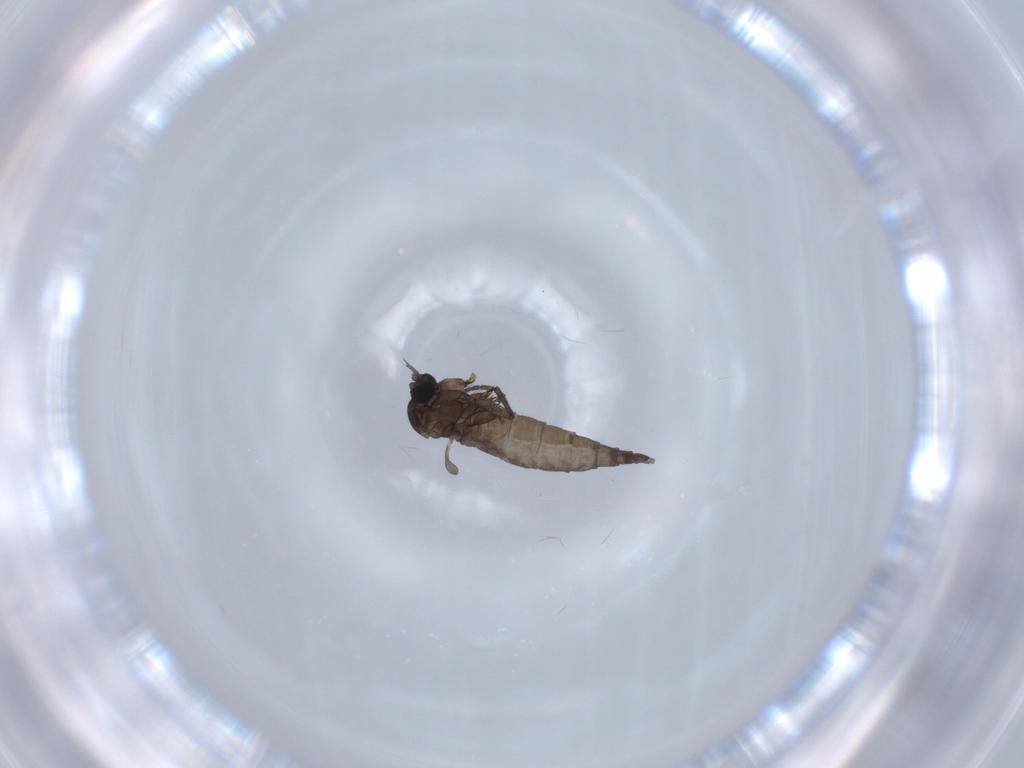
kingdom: Animalia
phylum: Arthropoda
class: Insecta
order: Diptera
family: Sciaridae
